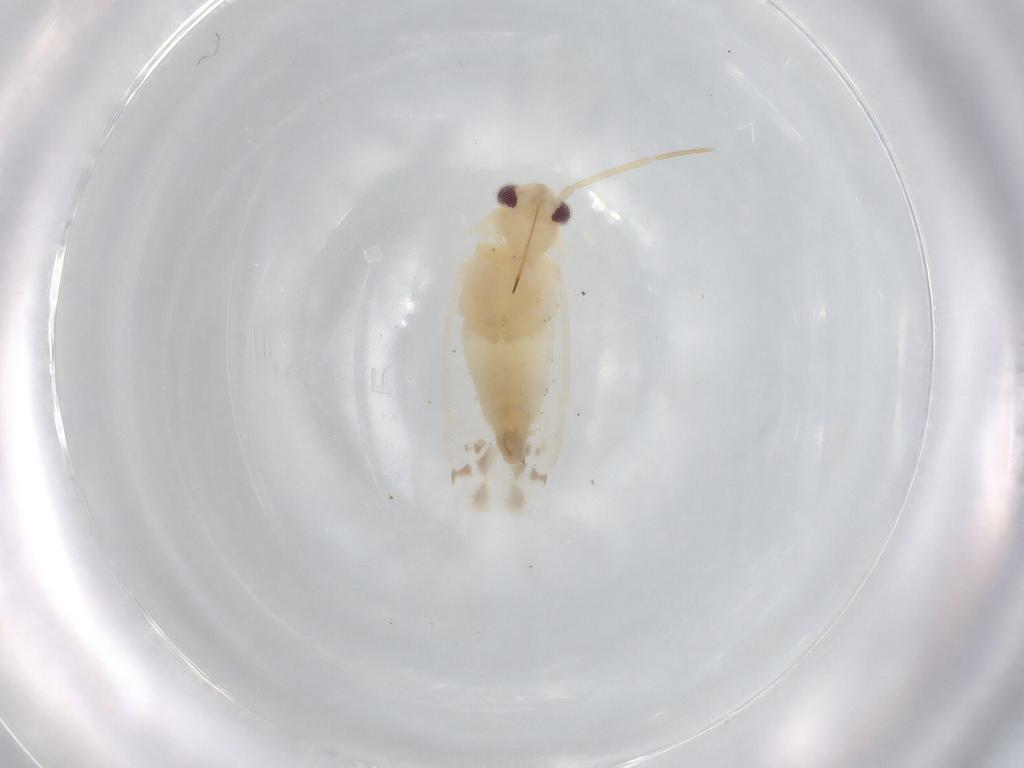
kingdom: Animalia
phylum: Arthropoda
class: Insecta
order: Hemiptera
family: Miridae
